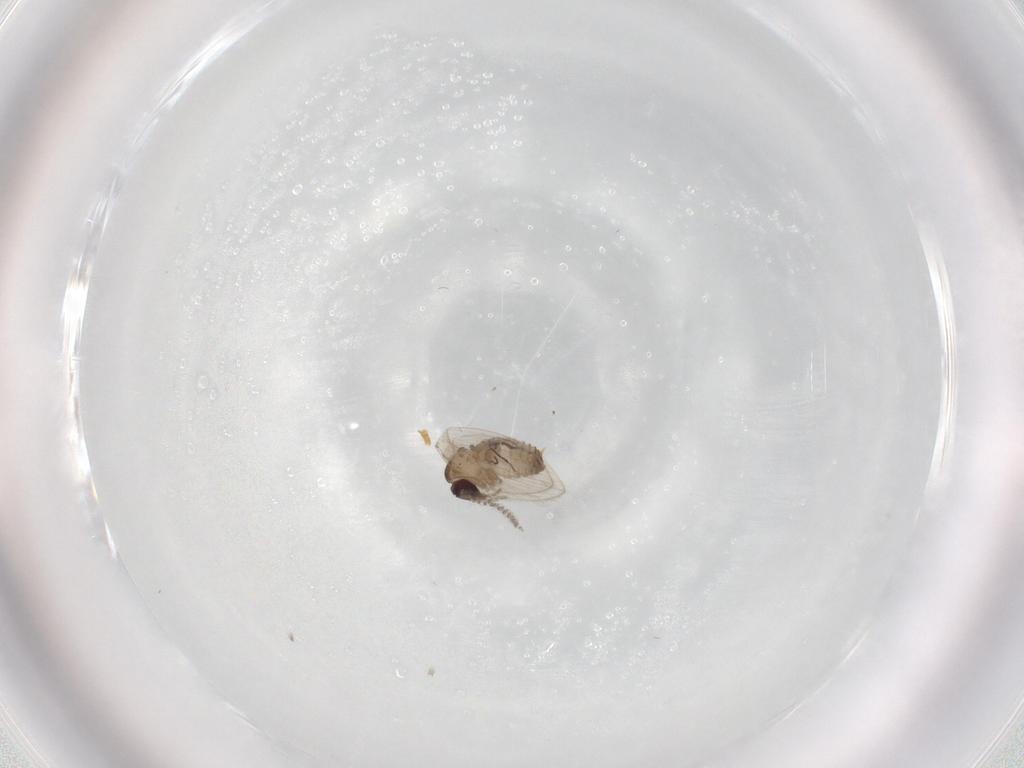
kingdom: Animalia
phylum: Arthropoda
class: Insecta
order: Diptera
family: Psychodidae
